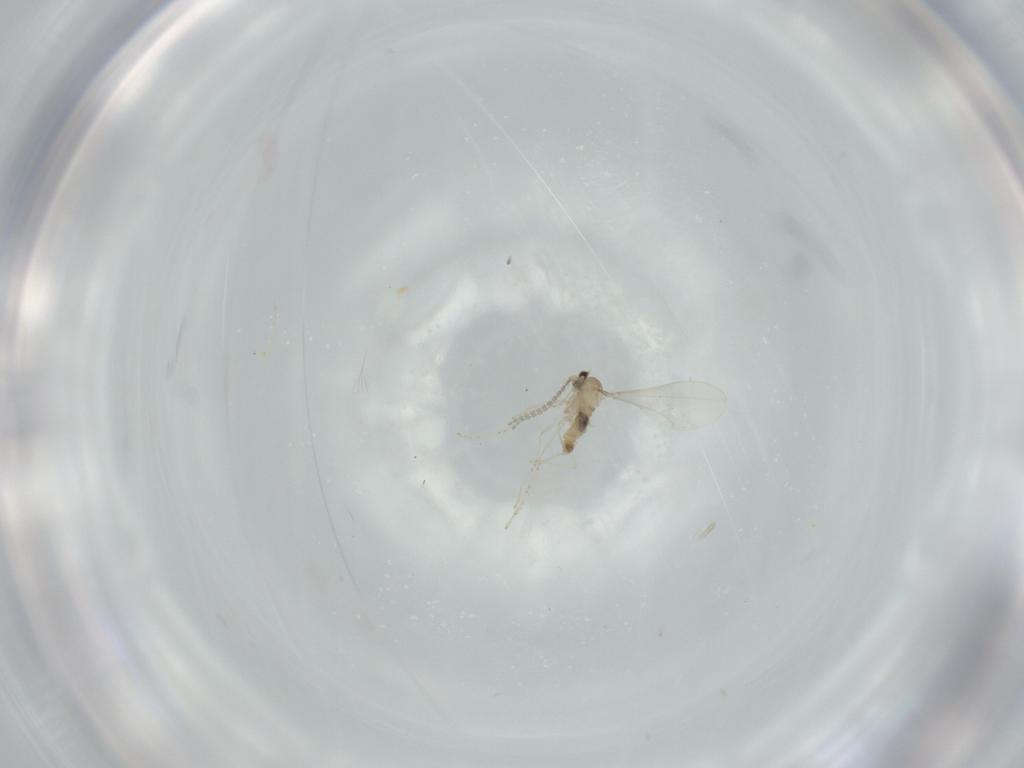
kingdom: Animalia
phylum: Arthropoda
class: Insecta
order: Diptera
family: Cecidomyiidae
